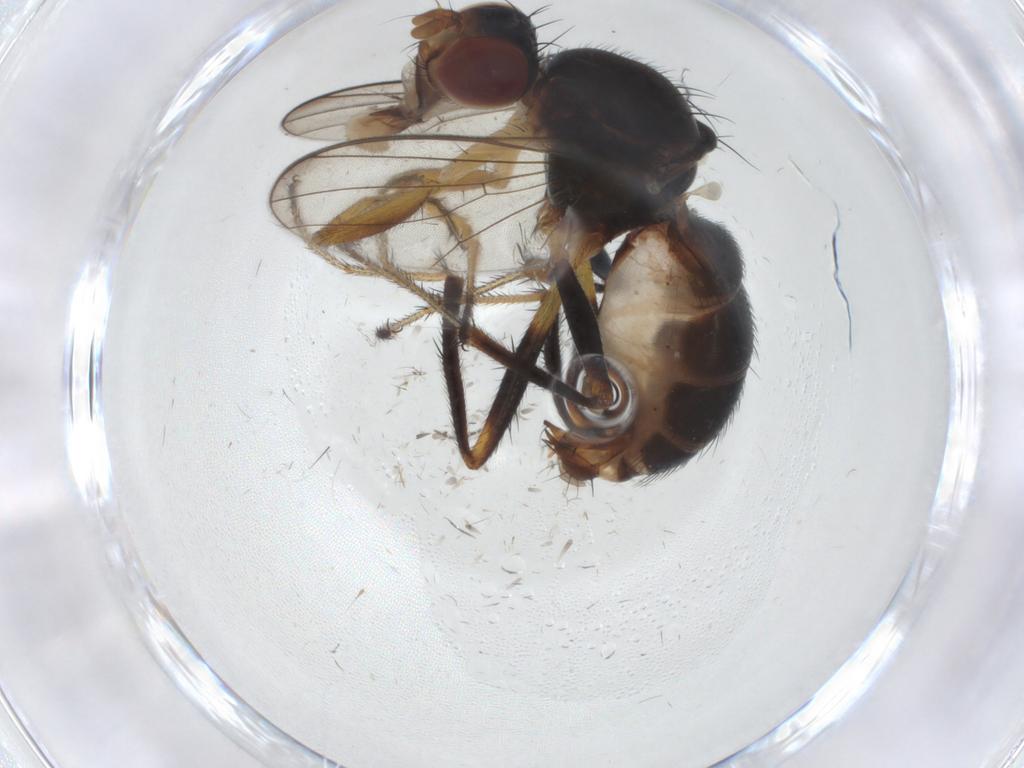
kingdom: Animalia
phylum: Arthropoda
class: Insecta
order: Diptera
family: Sepsidae
